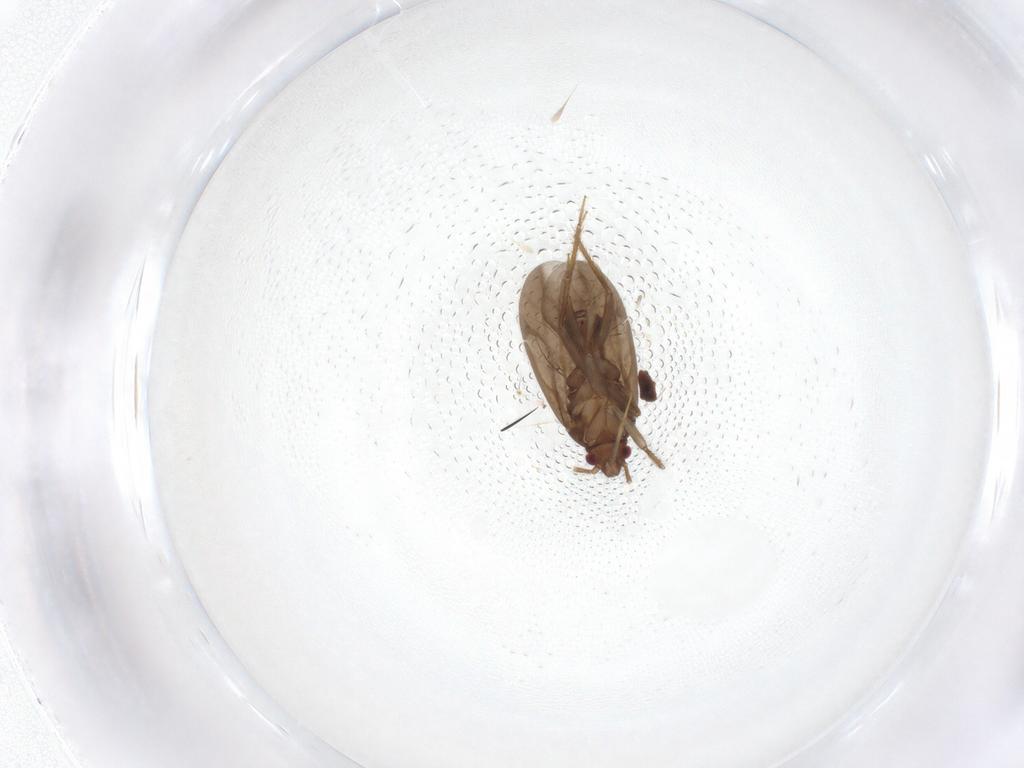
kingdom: Animalia
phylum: Arthropoda
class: Insecta
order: Hemiptera
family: Ceratocombidae
